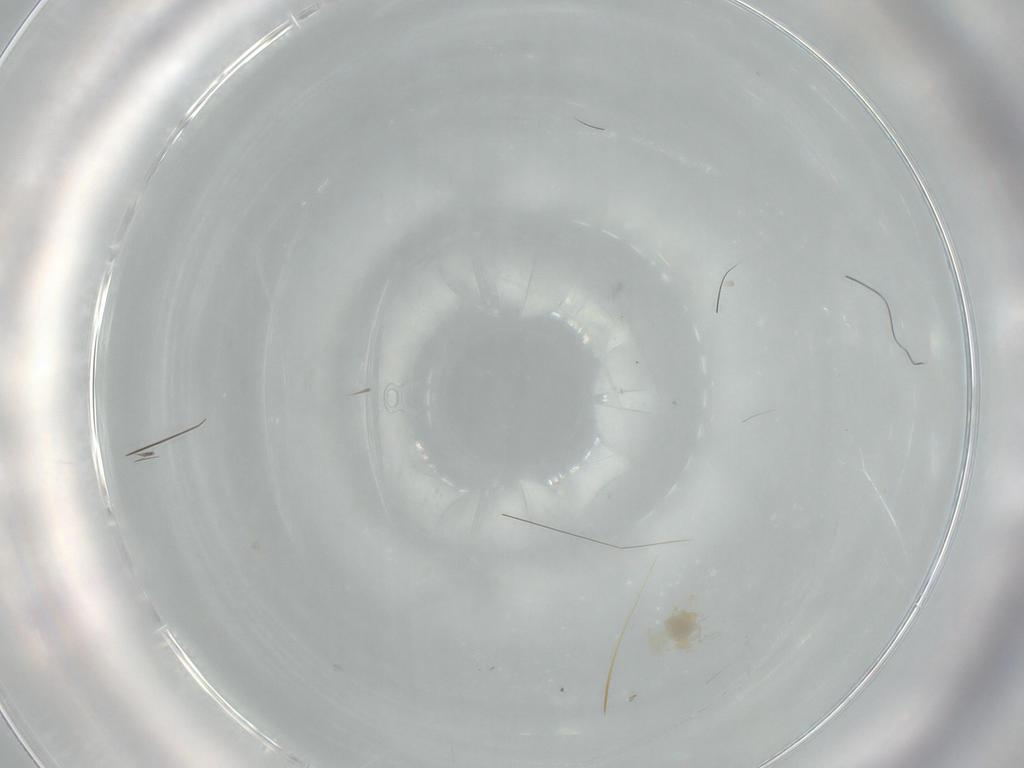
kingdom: Animalia
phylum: Arthropoda
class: Insecta
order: Hemiptera
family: Aleyrodidae
